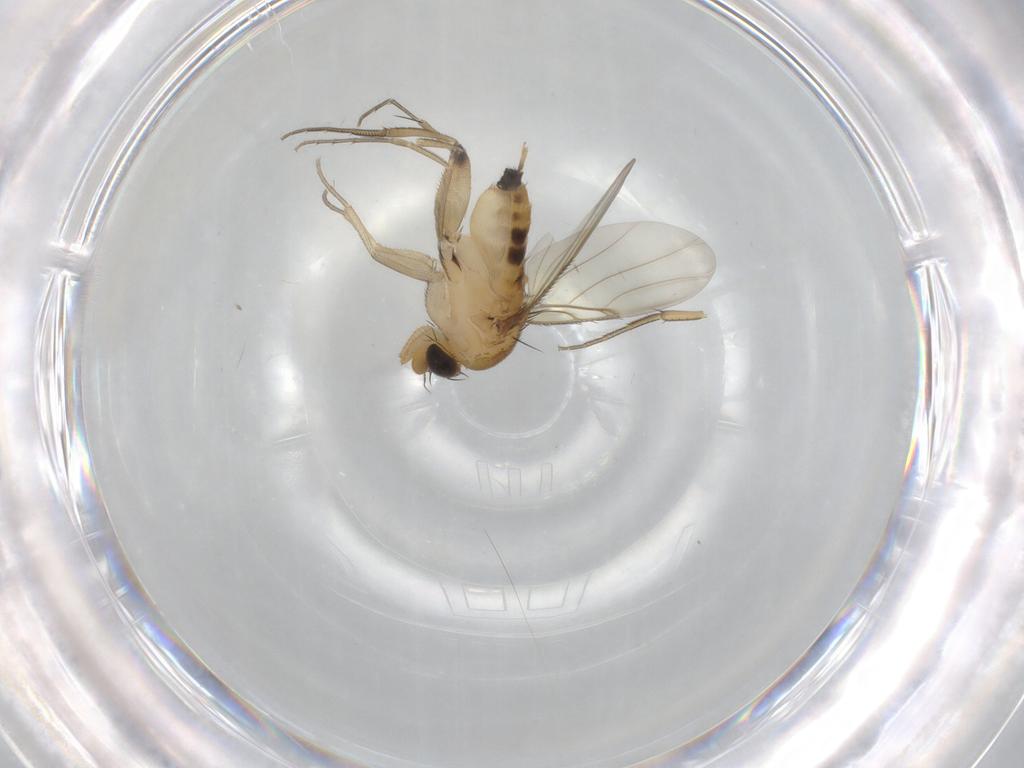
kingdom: Animalia
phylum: Arthropoda
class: Insecta
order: Diptera
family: Phoridae
